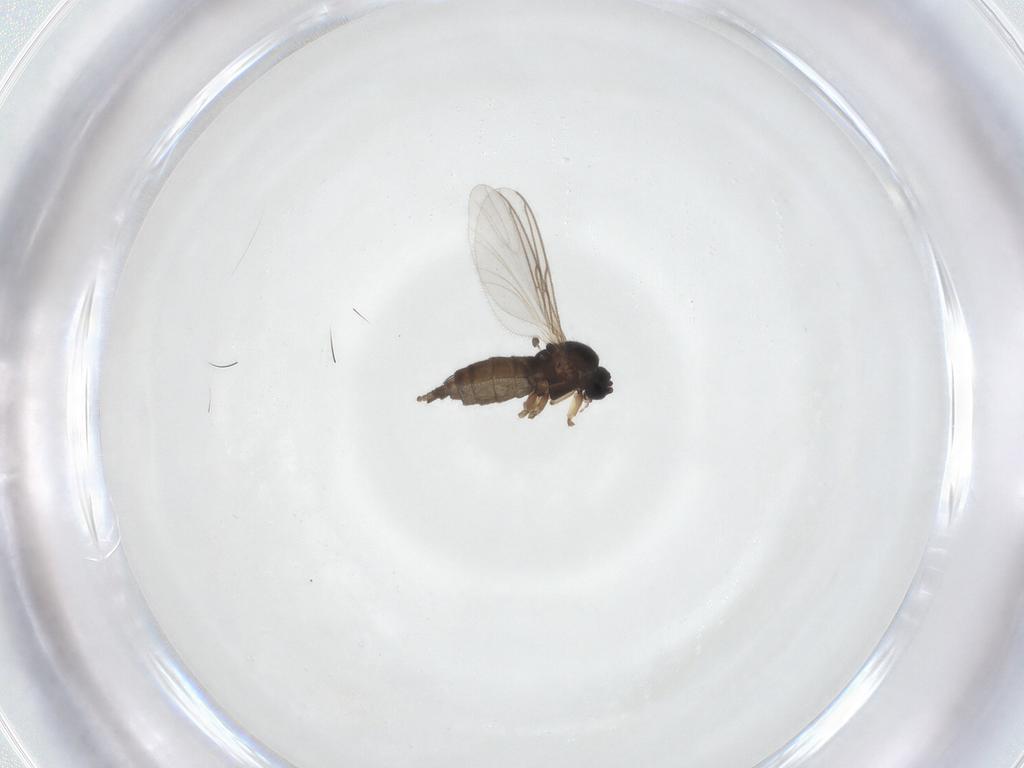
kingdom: Animalia
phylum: Arthropoda
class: Insecta
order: Diptera
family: Sciaridae
